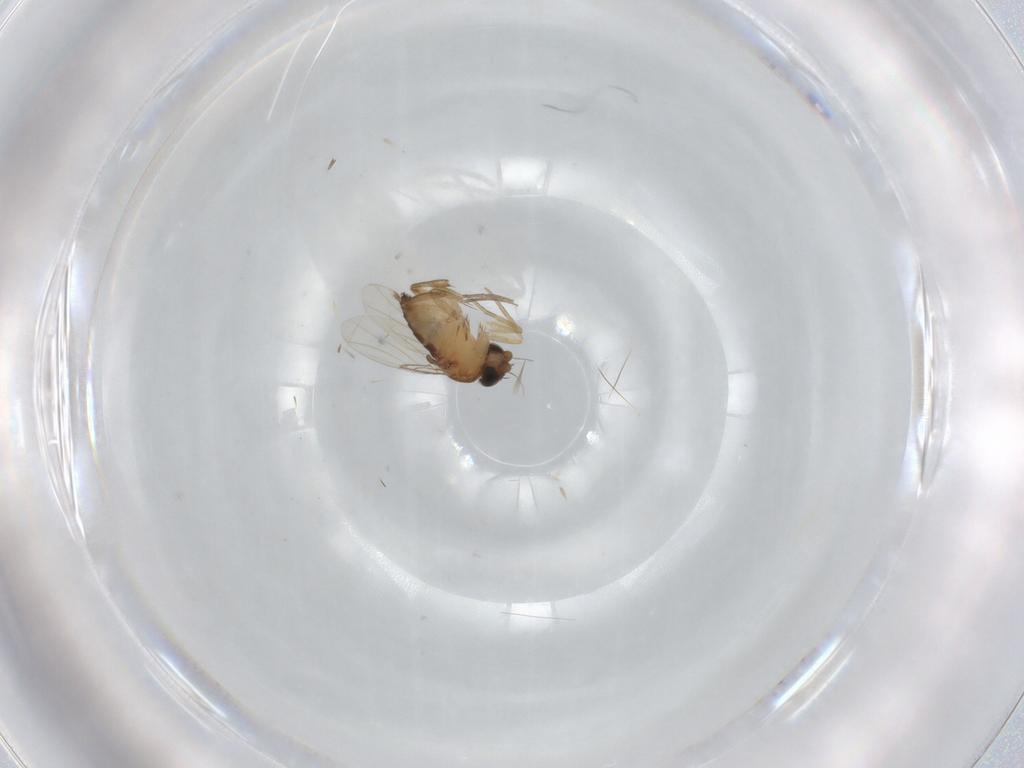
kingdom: Animalia
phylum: Arthropoda
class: Insecta
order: Diptera
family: Phoridae
